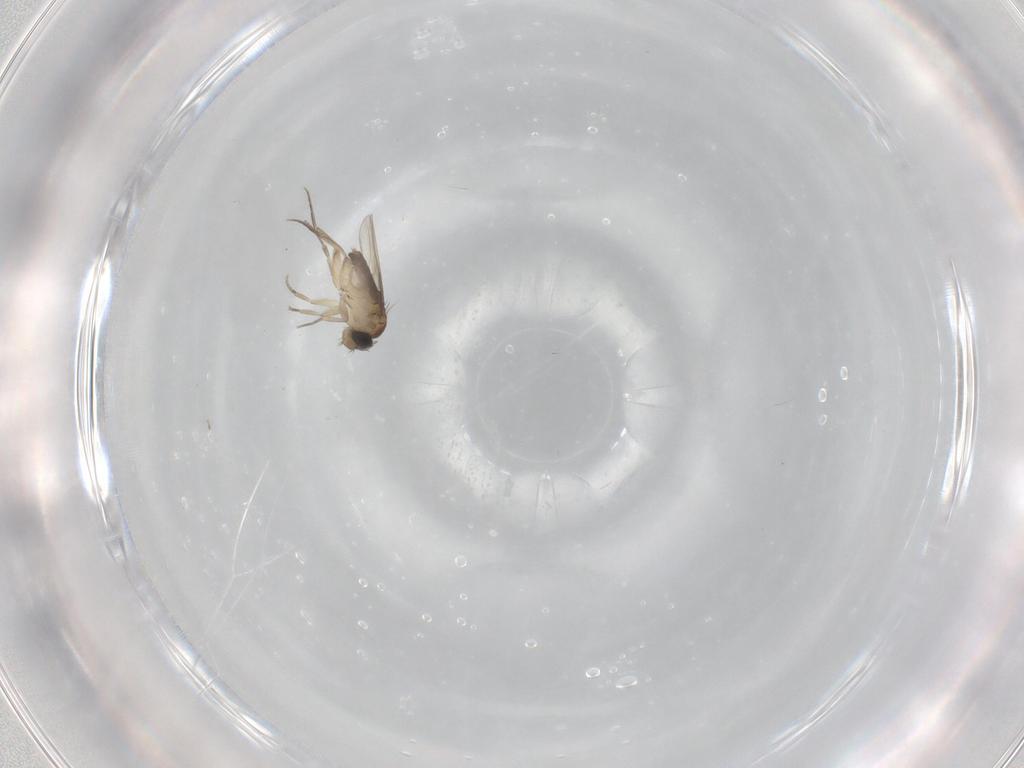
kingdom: Animalia
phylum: Arthropoda
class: Insecta
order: Diptera
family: Phoridae
